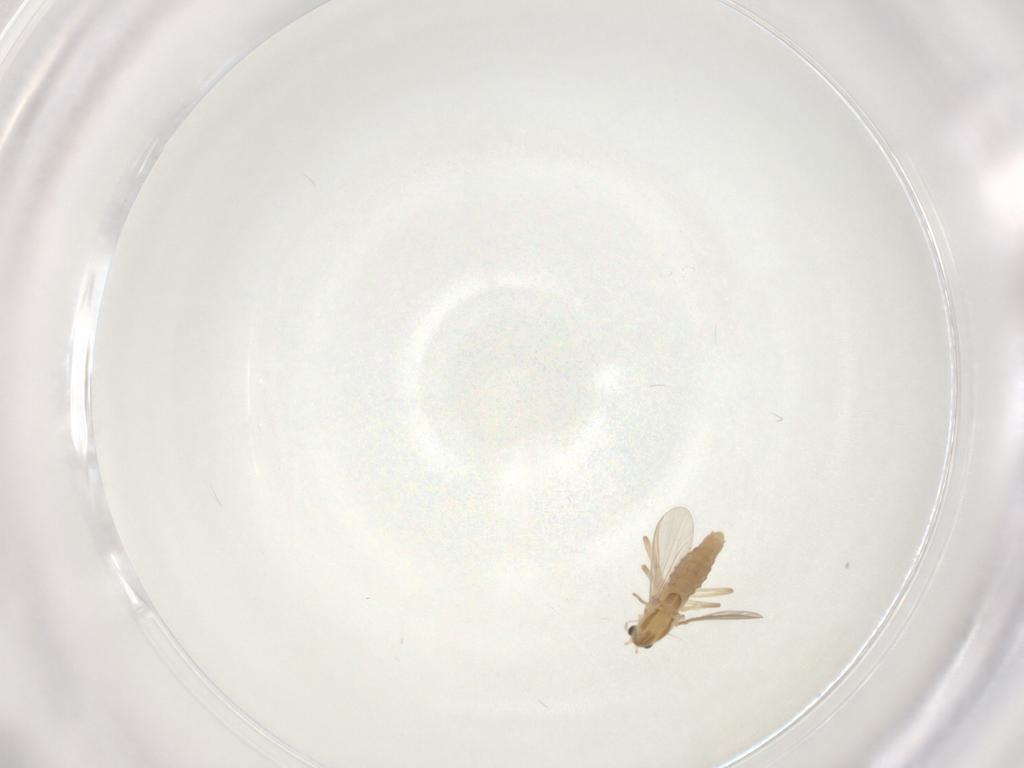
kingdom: Animalia
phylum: Arthropoda
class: Insecta
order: Diptera
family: Chironomidae
